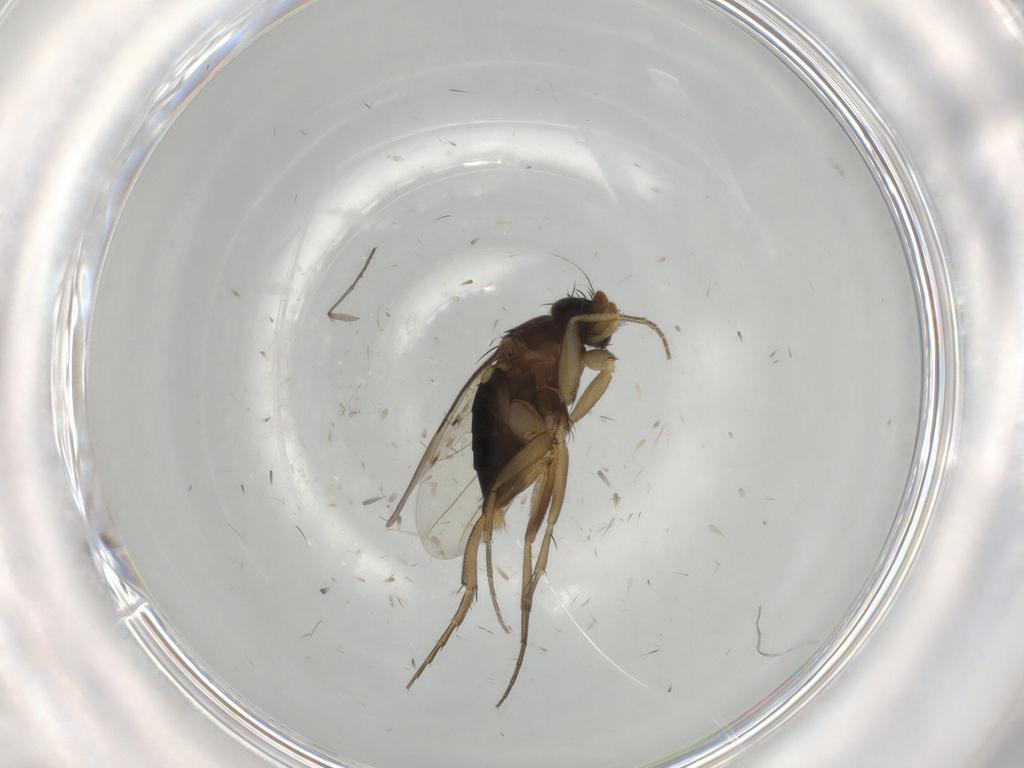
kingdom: Animalia
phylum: Arthropoda
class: Insecta
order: Diptera
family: Phoridae
